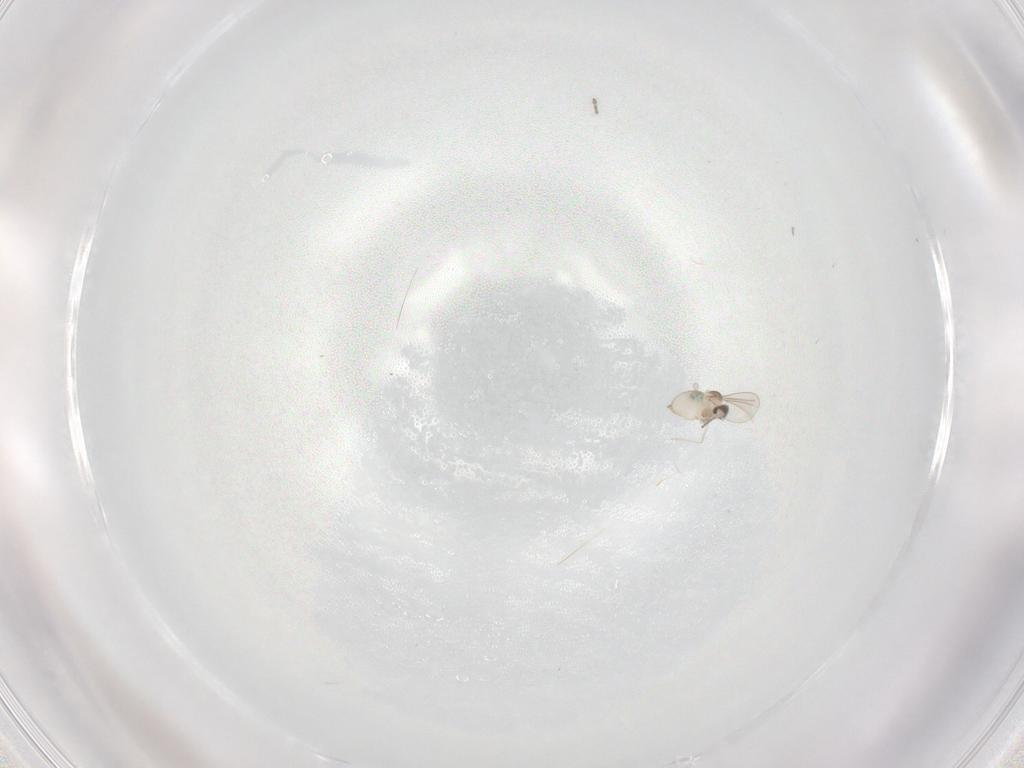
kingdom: Animalia
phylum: Arthropoda
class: Insecta
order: Diptera
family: Cecidomyiidae
